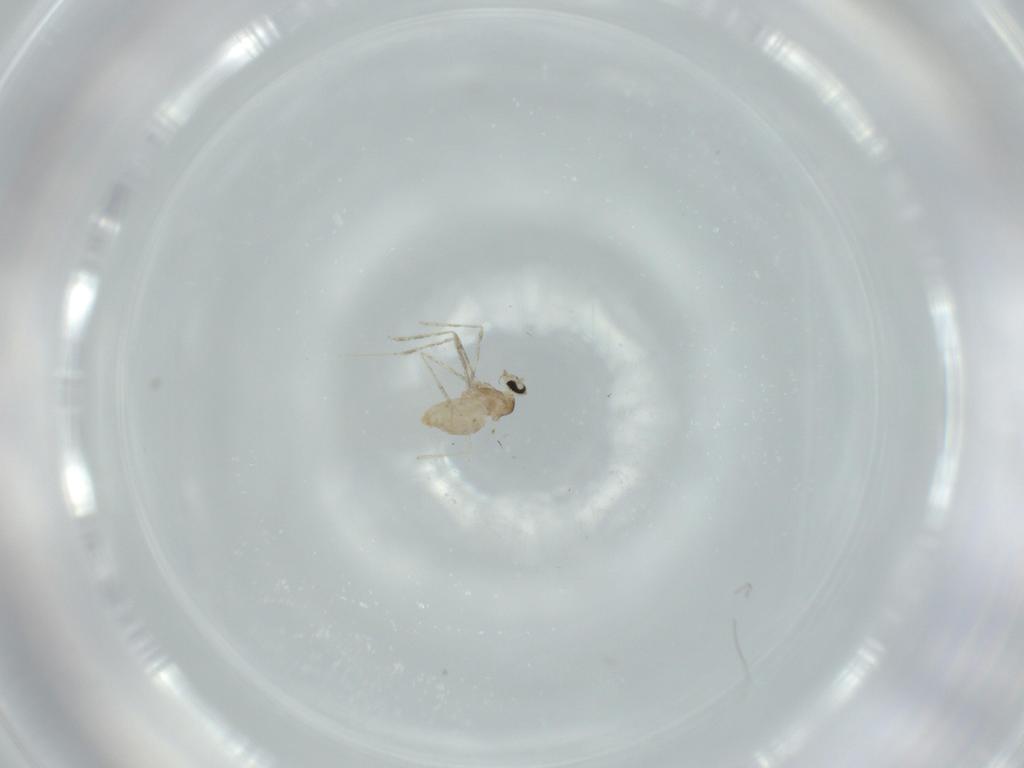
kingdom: Animalia
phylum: Arthropoda
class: Insecta
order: Diptera
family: Cecidomyiidae
